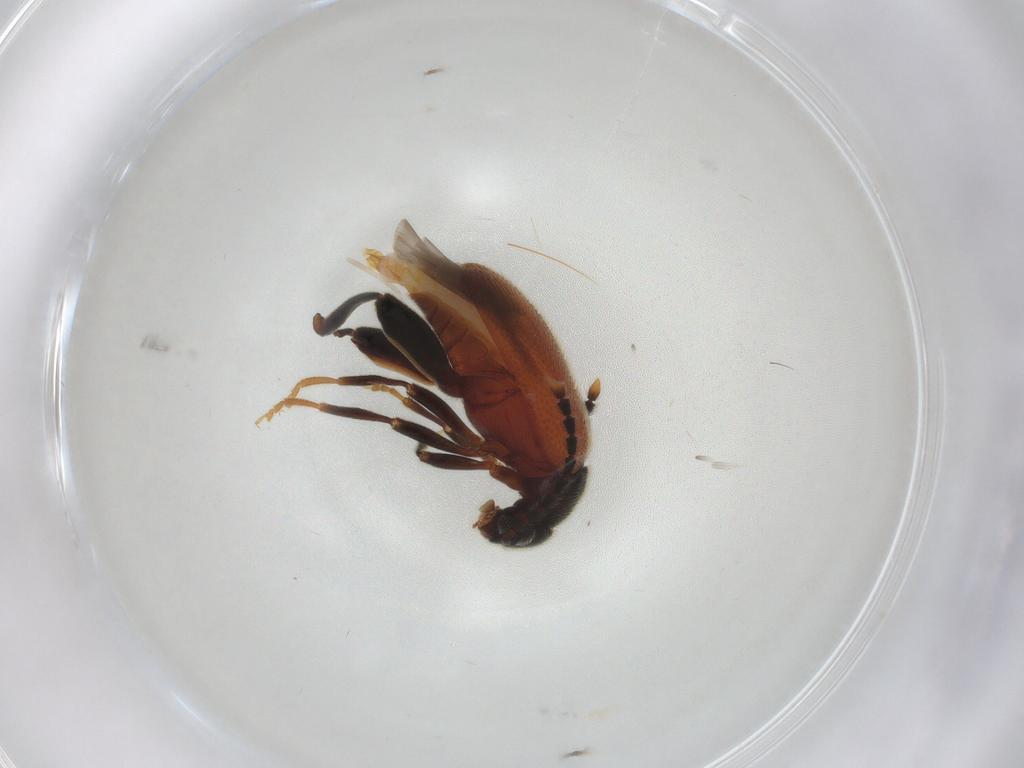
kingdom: Animalia
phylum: Arthropoda
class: Insecta
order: Coleoptera
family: Aderidae
